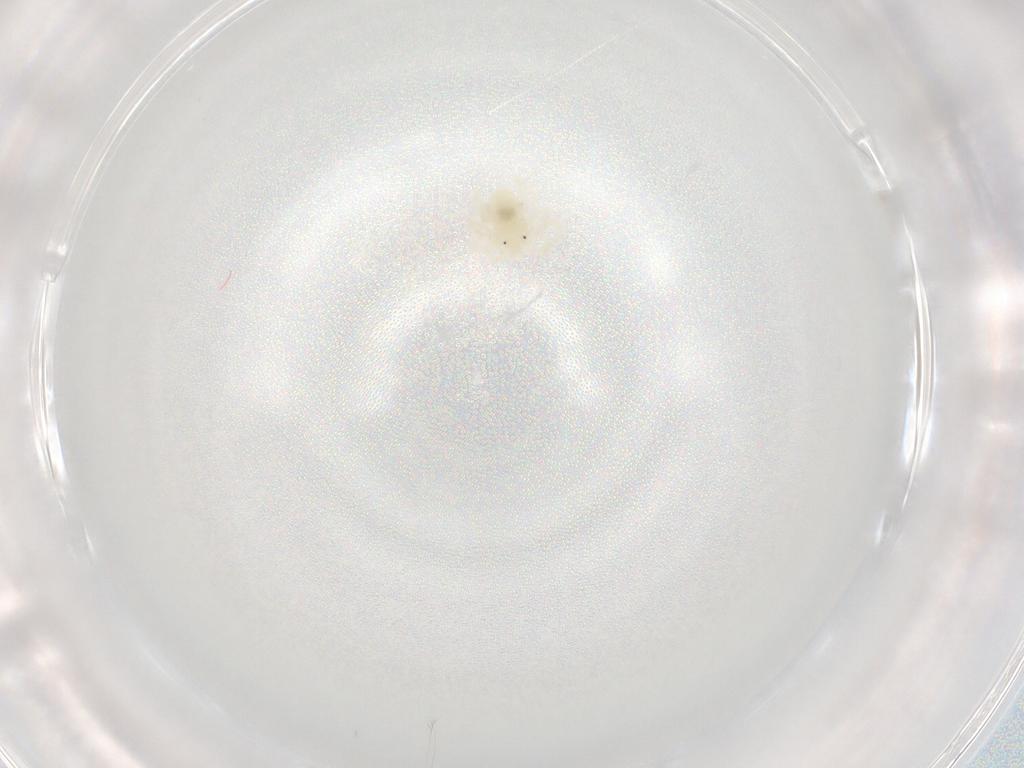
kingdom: Animalia
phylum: Arthropoda
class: Arachnida
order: Trombidiformes
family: Anystidae
